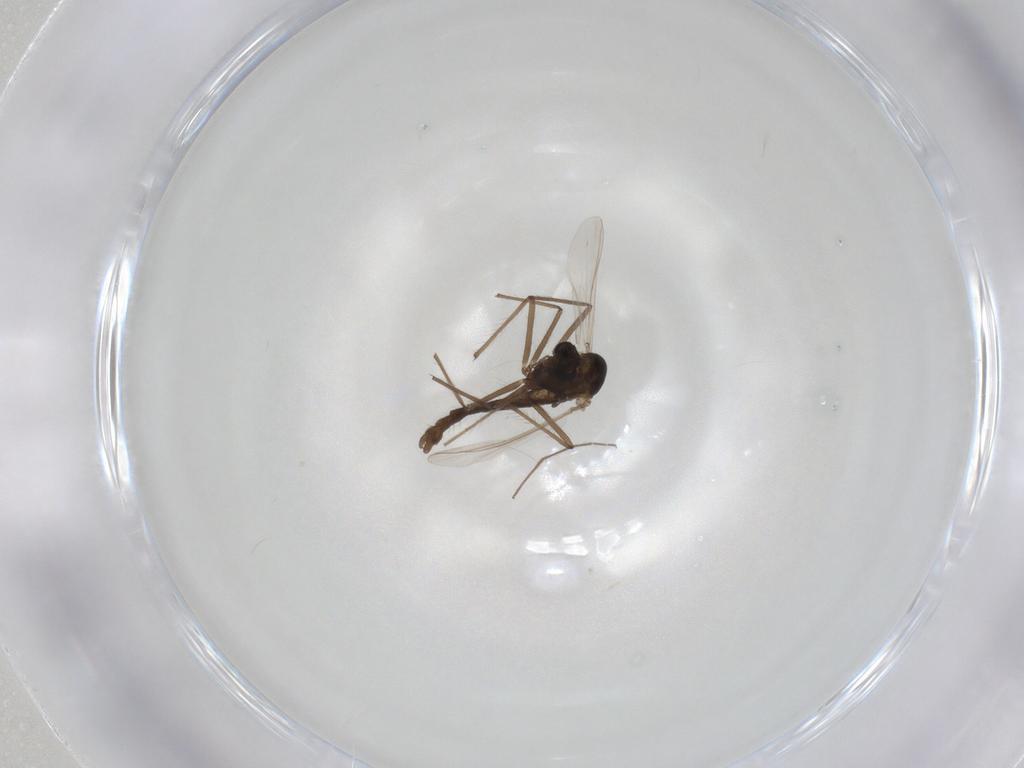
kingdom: Animalia
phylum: Arthropoda
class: Insecta
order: Diptera
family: Chironomidae
